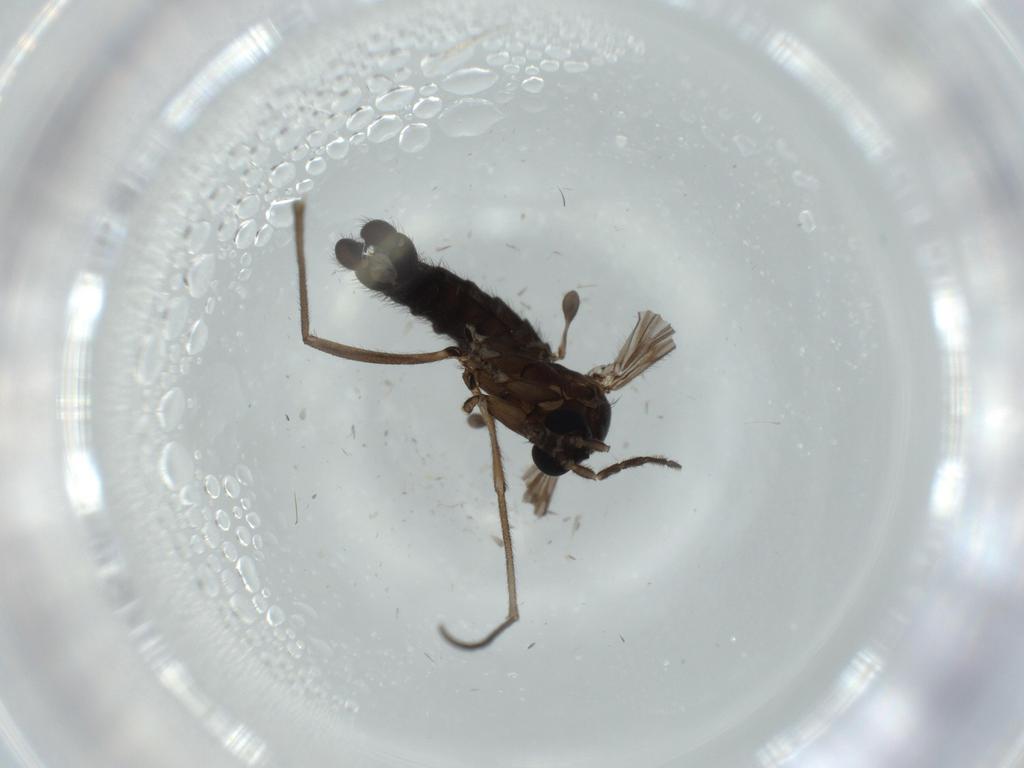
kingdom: Animalia
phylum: Arthropoda
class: Insecta
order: Diptera
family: Sciaridae
